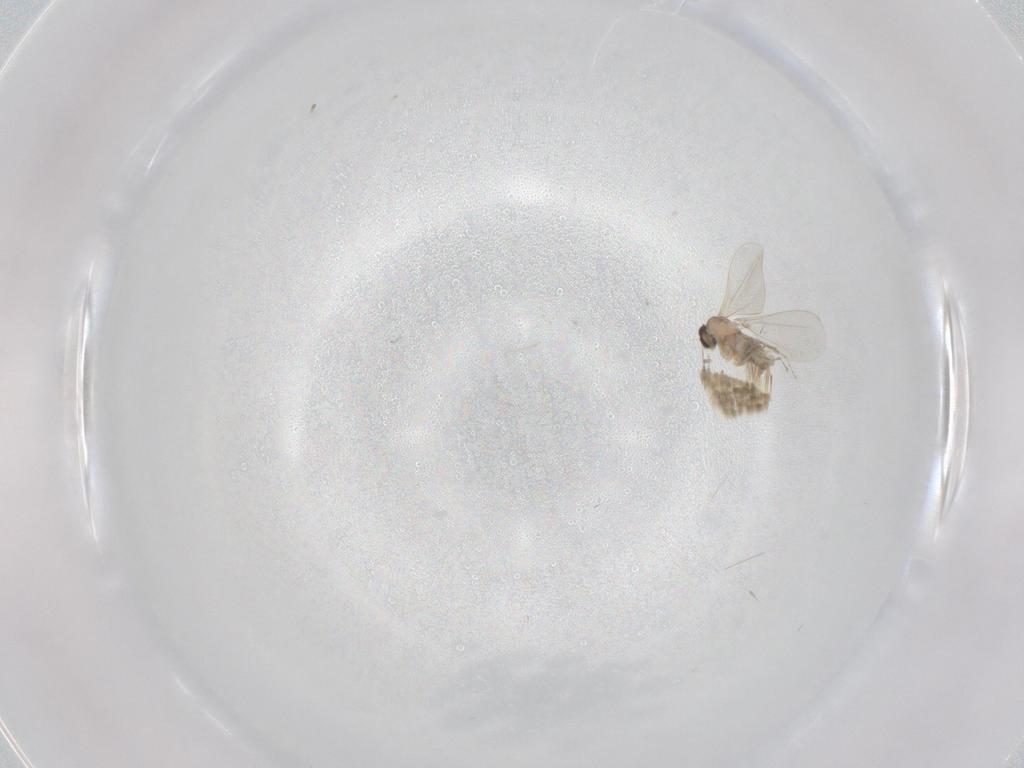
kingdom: Animalia
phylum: Arthropoda
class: Insecta
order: Diptera
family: Cecidomyiidae
